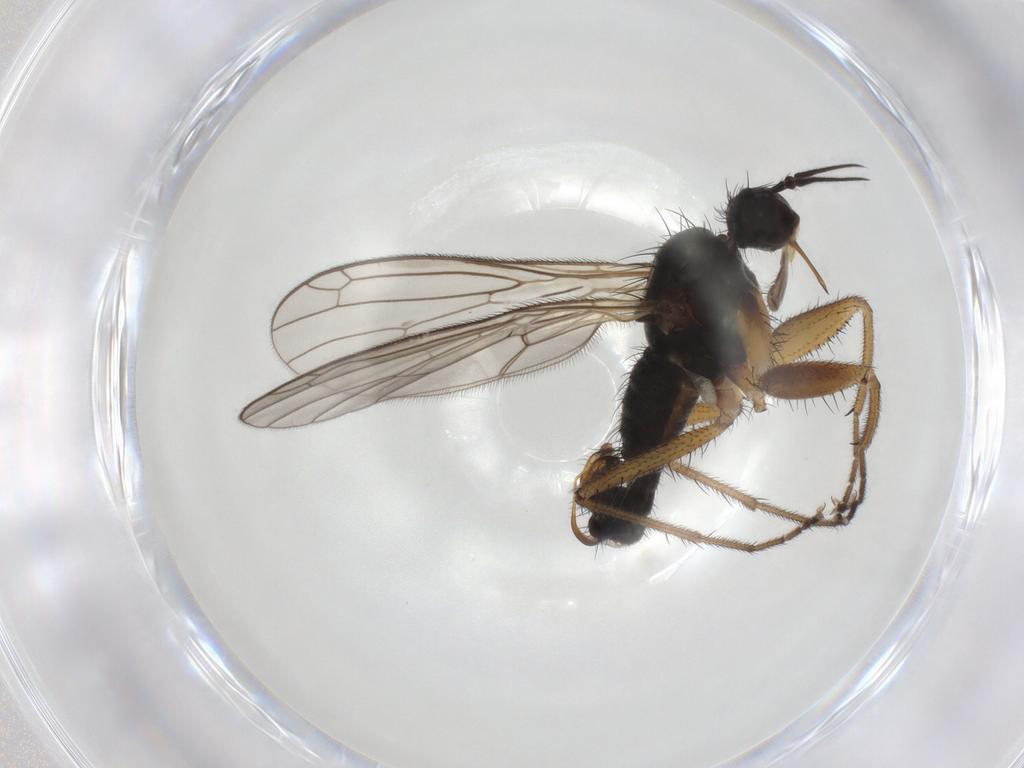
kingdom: Animalia
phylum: Arthropoda
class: Insecta
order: Diptera
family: Empididae
